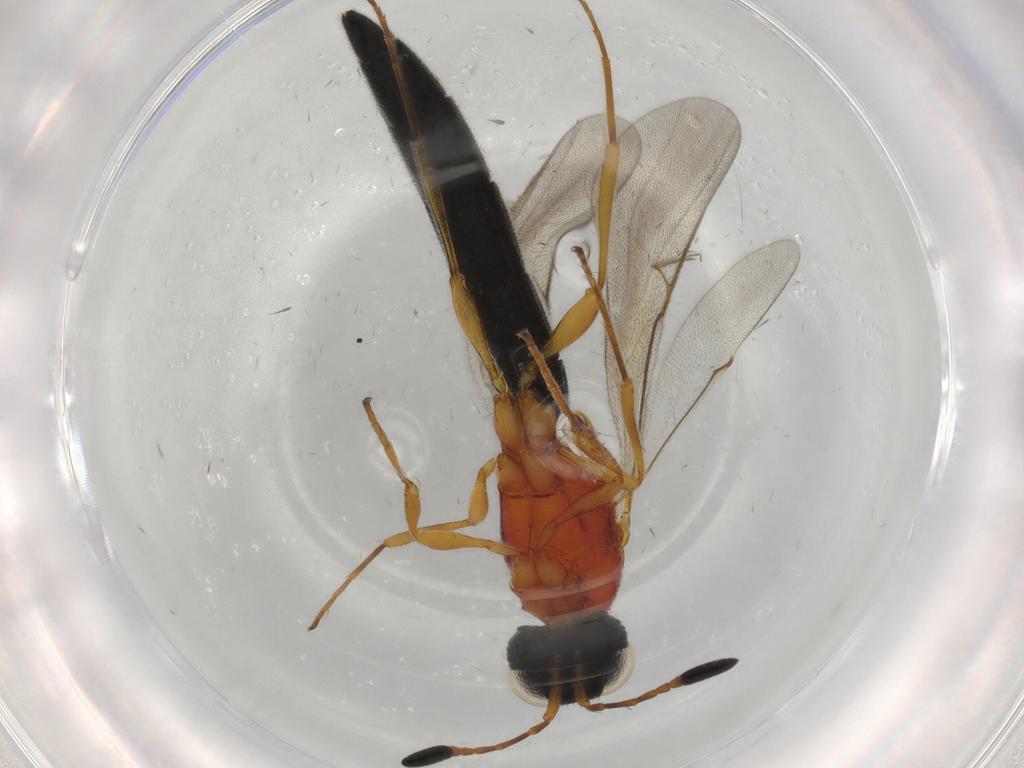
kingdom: Animalia
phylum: Arthropoda
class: Insecta
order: Hymenoptera
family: Scelionidae
